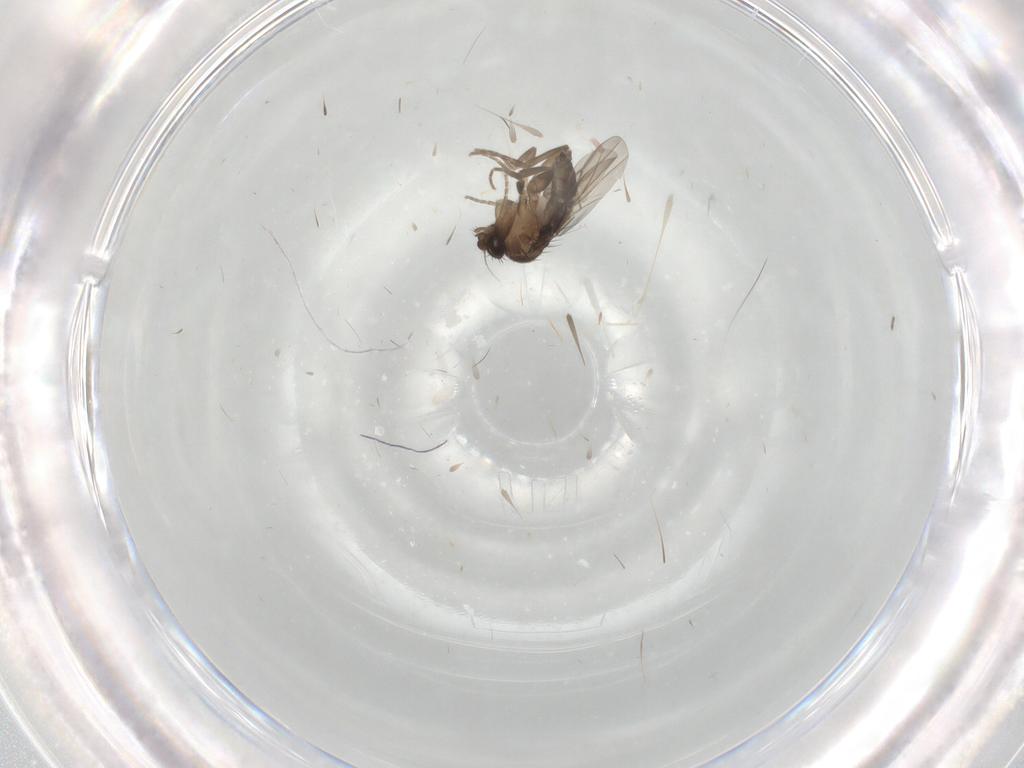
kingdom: Animalia
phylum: Arthropoda
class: Insecta
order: Diptera
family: Phoridae
